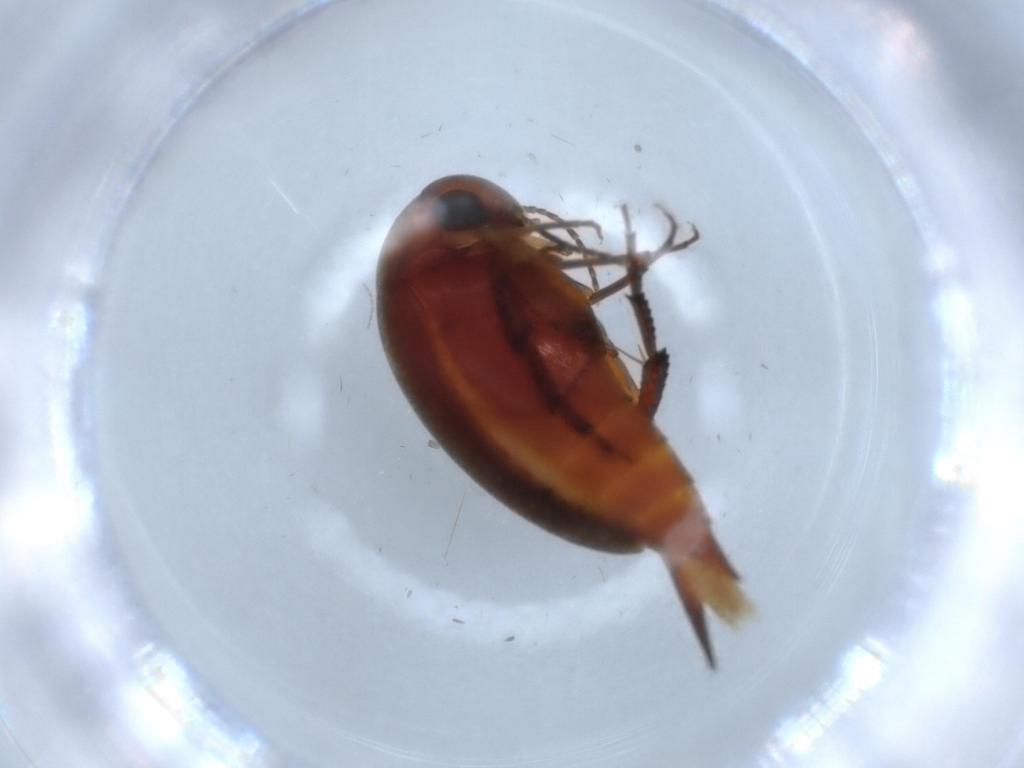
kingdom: Animalia
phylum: Arthropoda
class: Insecta
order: Coleoptera
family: Mordellidae
